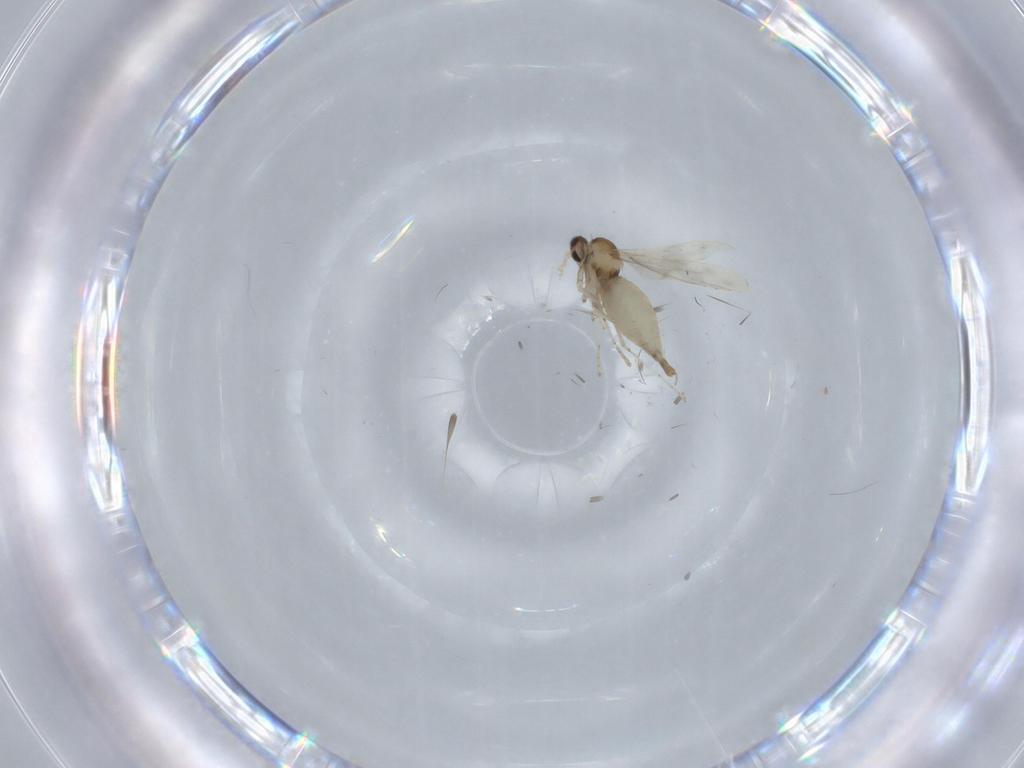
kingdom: Animalia
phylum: Arthropoda
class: Insecta
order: Diptera
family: Cecidomyiidae
